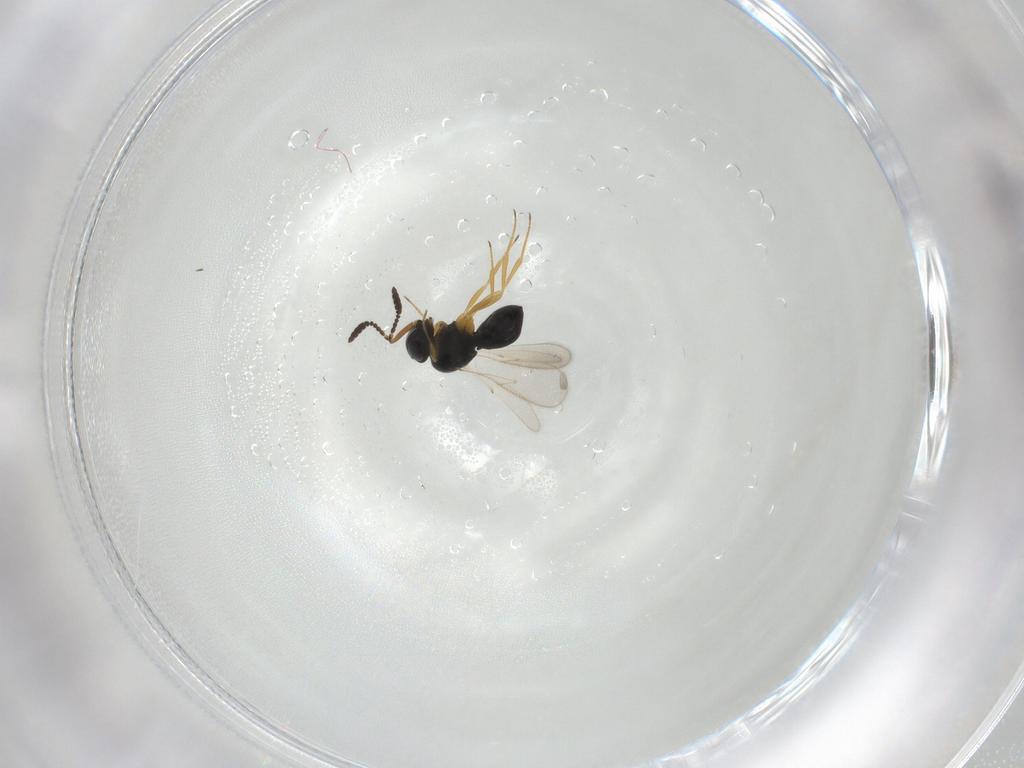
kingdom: Animalia
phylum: Arthropoda
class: Insecta
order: Hymenoptera
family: Scelionidae
